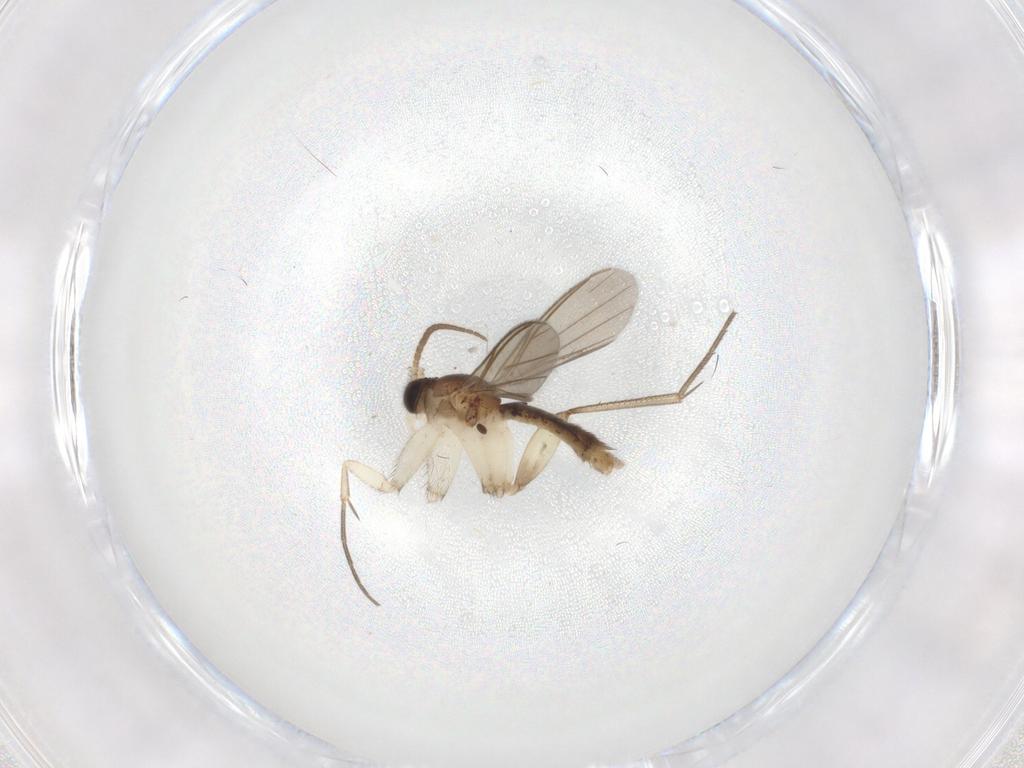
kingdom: Animalia
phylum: Arthropoda
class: Insecta
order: Diptera
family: Mycetophilidae
